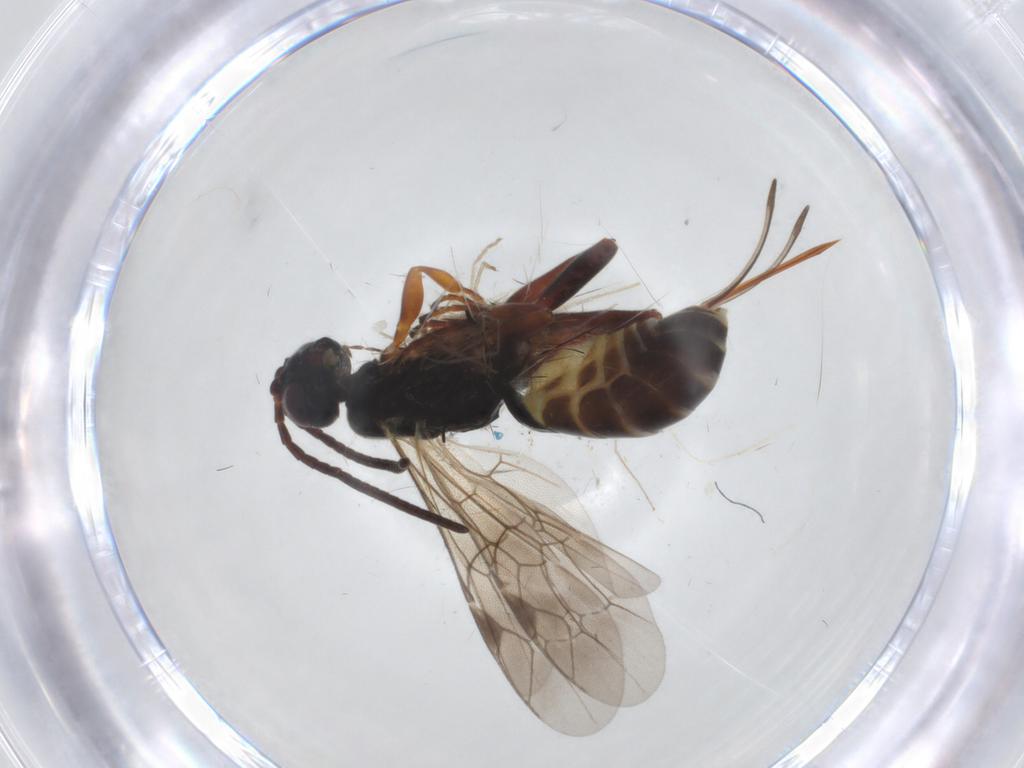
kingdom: Animalia
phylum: Arthropoda
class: Insecta
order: Hymenoptera
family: Ichneumonidae
